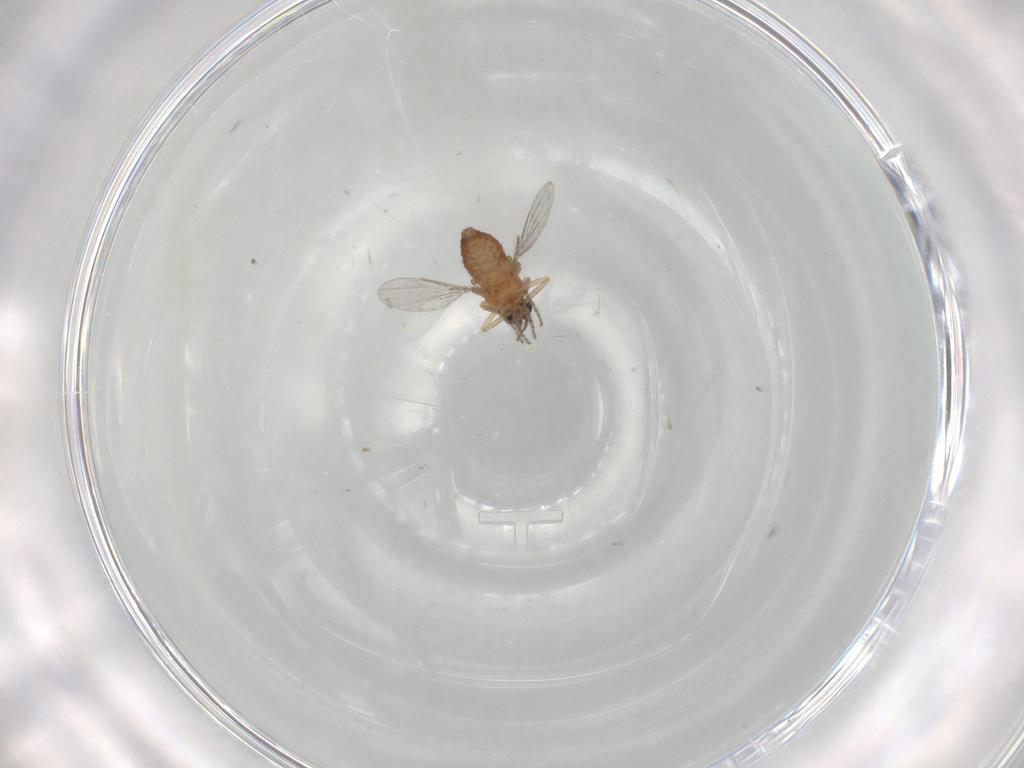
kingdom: Animalia
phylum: Arthropoda
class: Insecta
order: Diptera
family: Ceratopogonidae
